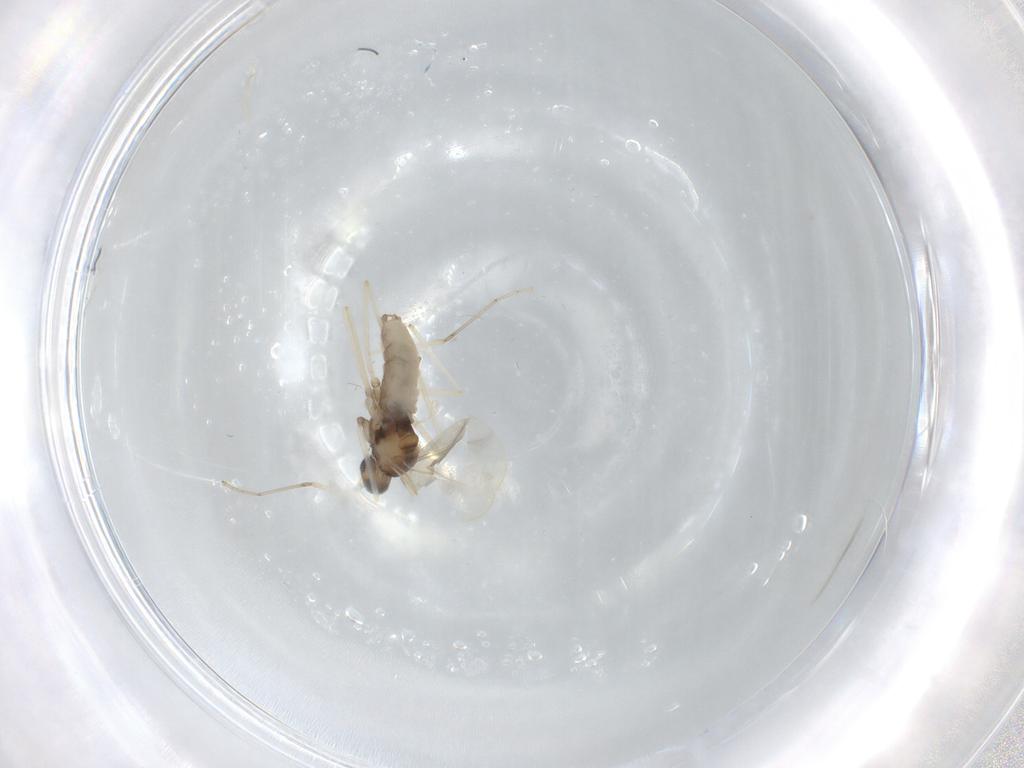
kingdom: Animalia
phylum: Arthropoda
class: Insecta
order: Diptera
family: Cecidomyiidae
